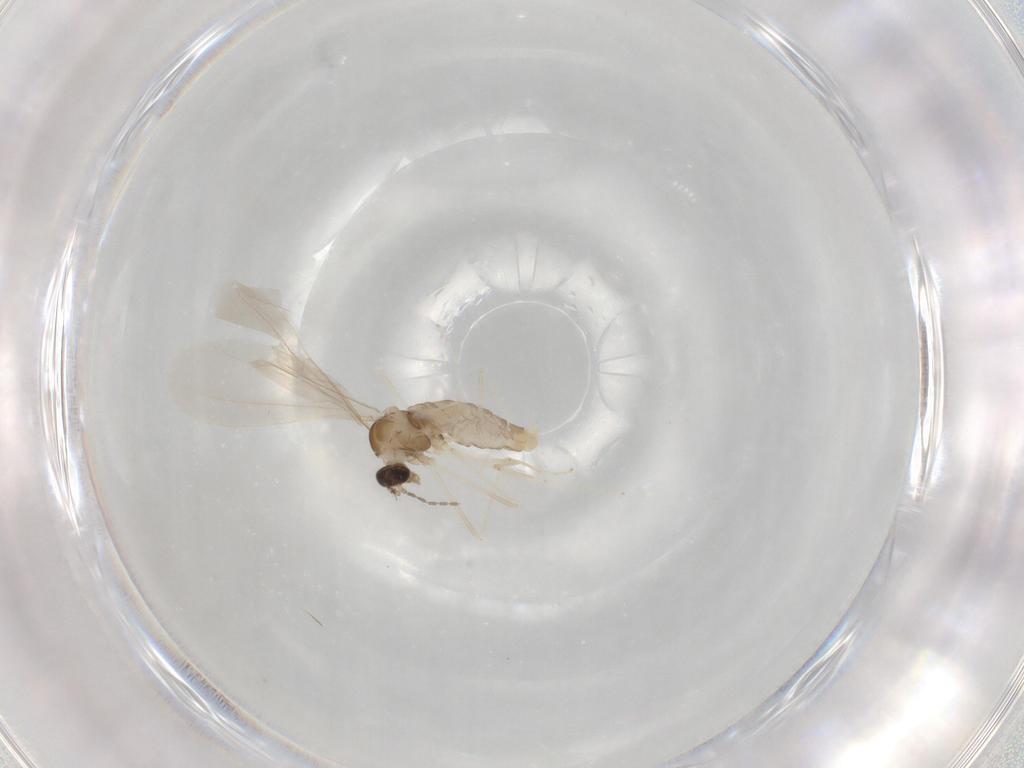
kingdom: Animalia
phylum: Arthropoda
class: Insecta
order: Diptera
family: Cecidomyiidae
